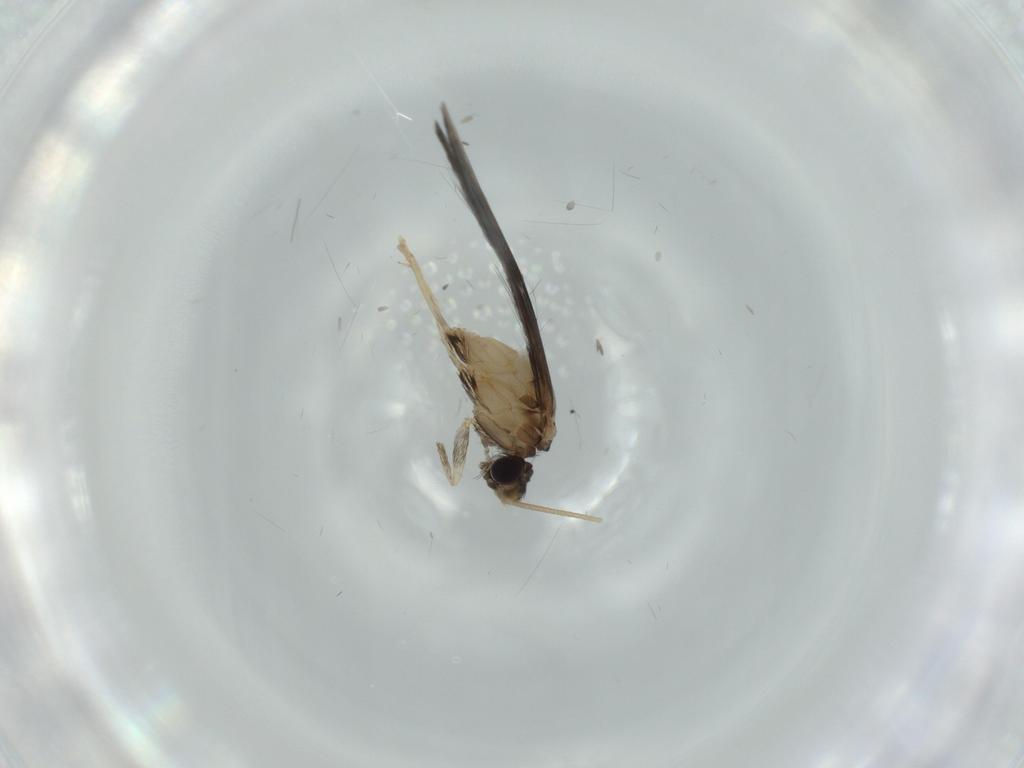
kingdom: Animalia
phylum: Arthropoda
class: Insecta
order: Trichoptera
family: Hydroptilidae
